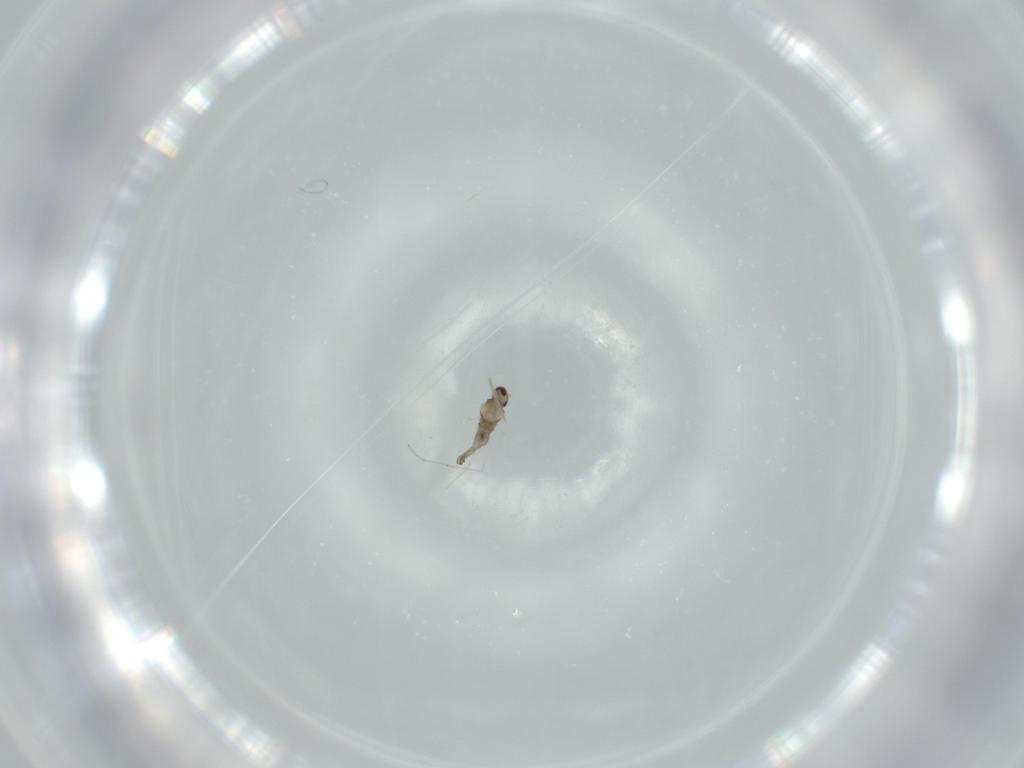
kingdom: Animalia
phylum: Arthropoda
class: Insecta
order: Diptera
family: Cecidomyiidae
